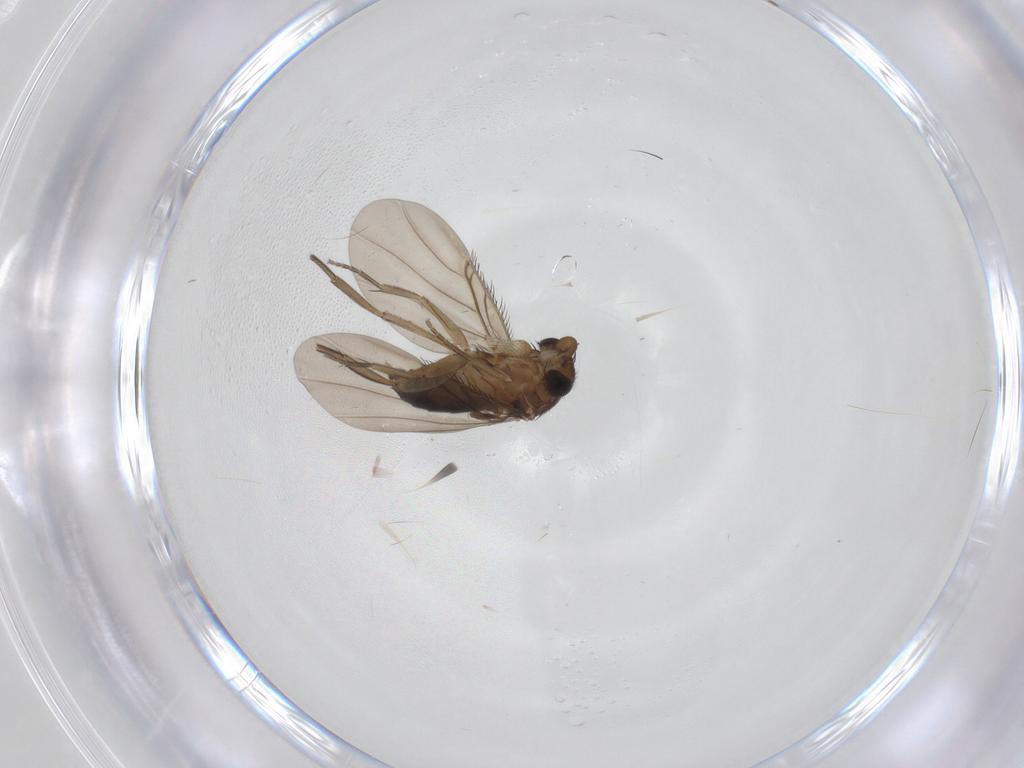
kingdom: Animalia
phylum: Arthropoda
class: Insecta
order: Diptera
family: Phoridae
